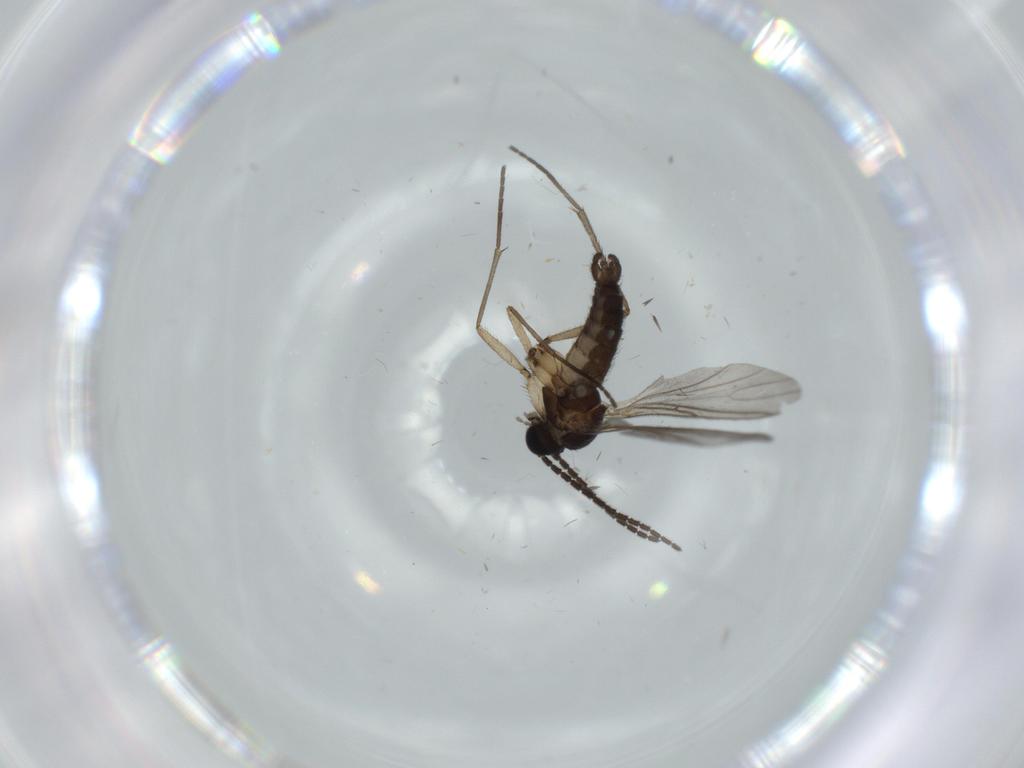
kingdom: Animalia
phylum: Arthropoda
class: Insecta
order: Diptera
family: Sciaridae
